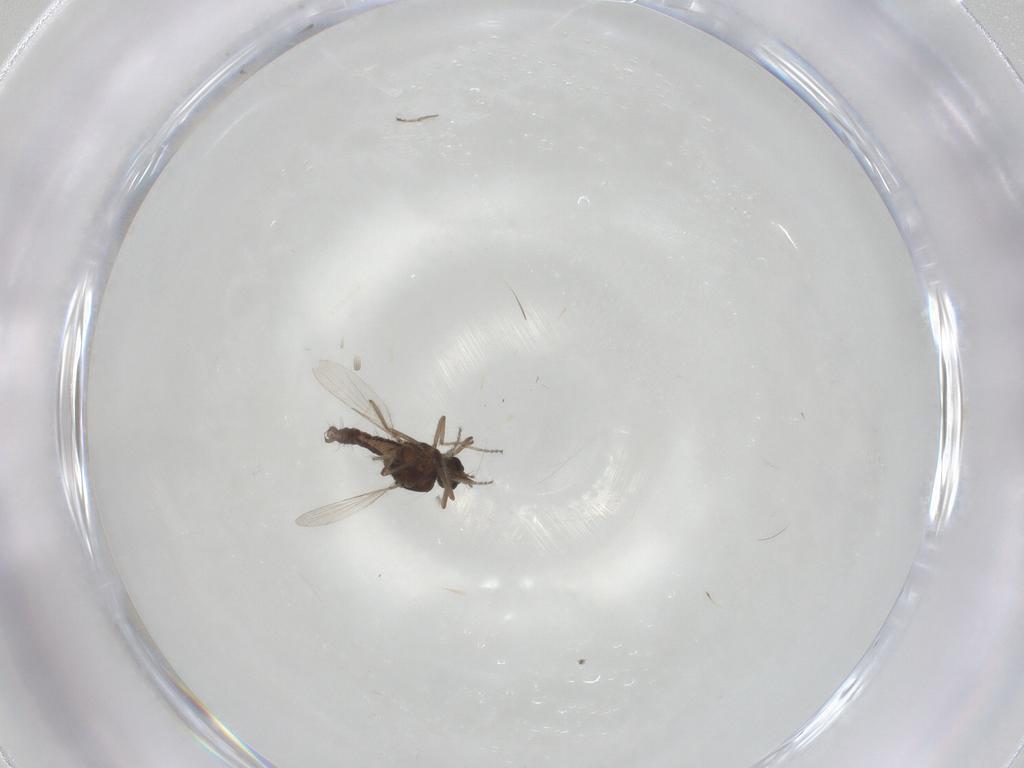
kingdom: Animalia
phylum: Arthropoda
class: Insecta
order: Diptera
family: Ceratopogonidae
